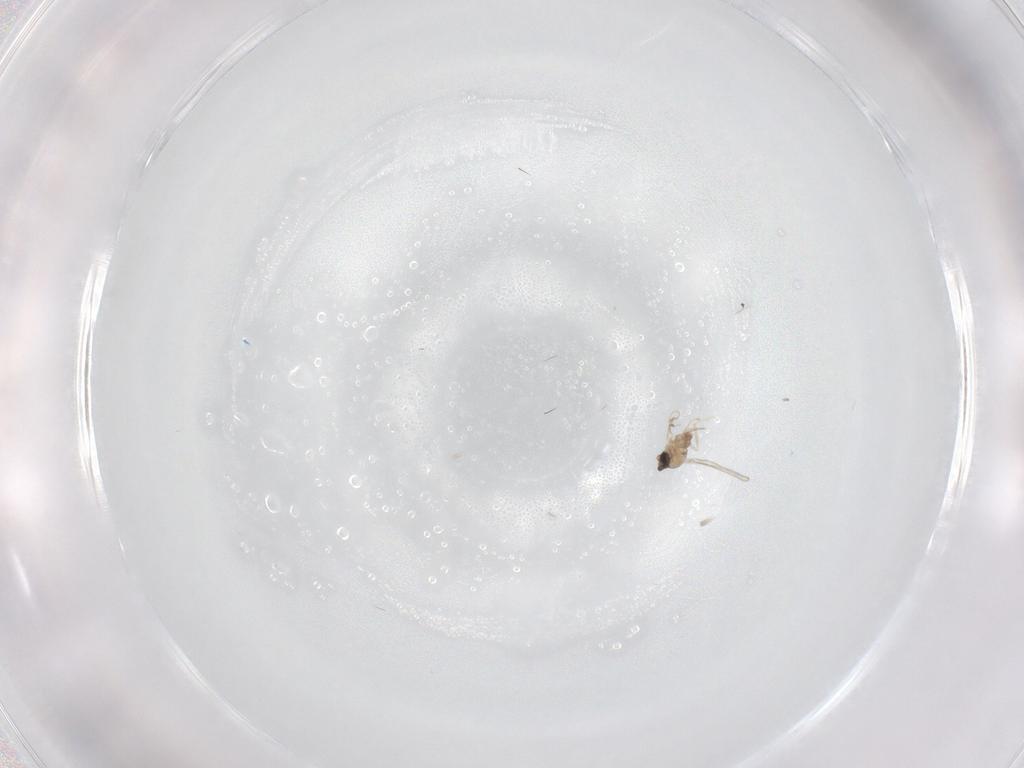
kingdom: Animalia
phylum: Arthropoda
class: Insecta
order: Diptera
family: Cecidomyiidae
